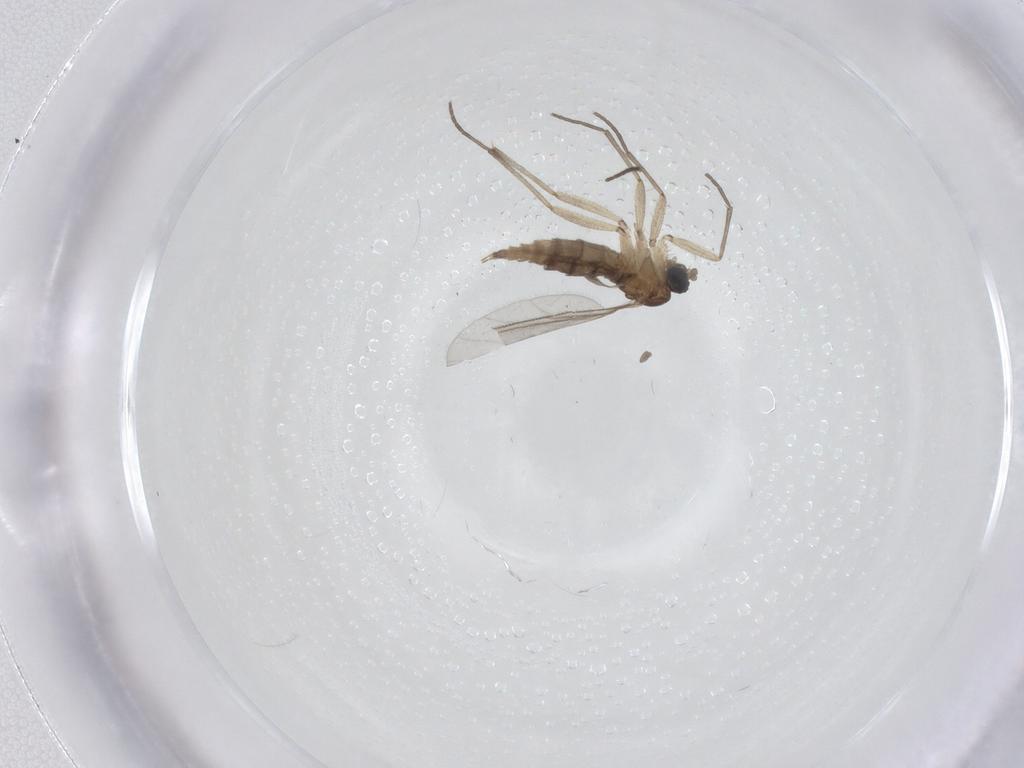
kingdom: Animalia
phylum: Arthropoda
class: Insecta
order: Diptera
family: Sciaridae
